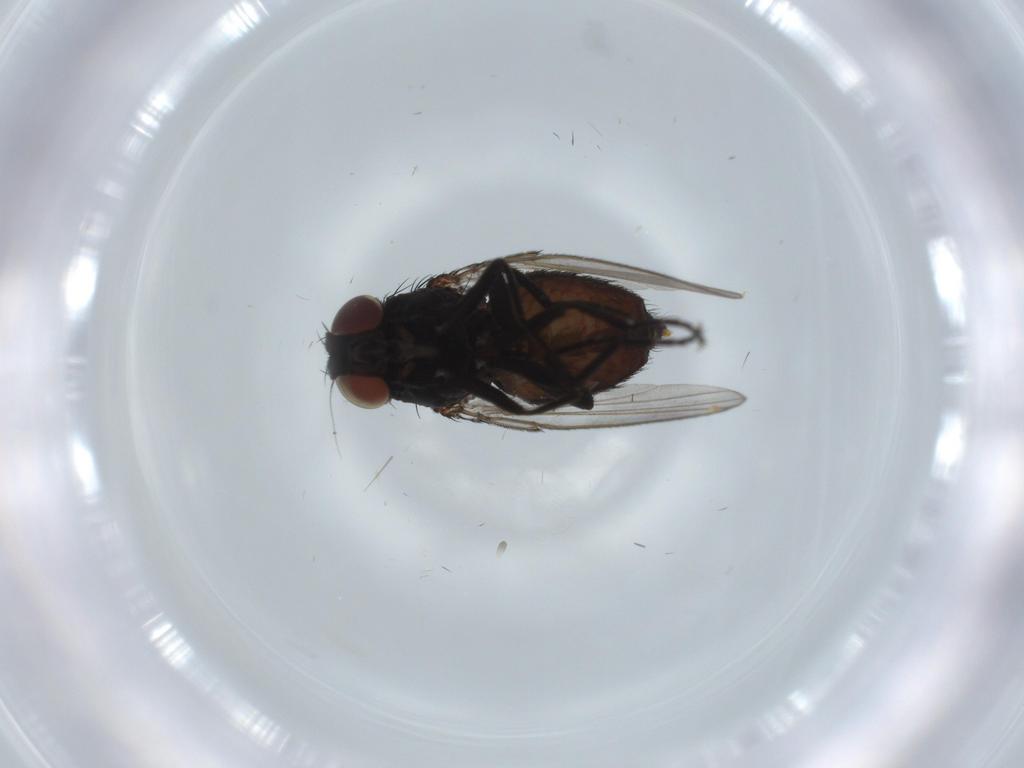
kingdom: Animalia
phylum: Arthropoda
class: Insecta
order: Diptera
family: Milichiidae
